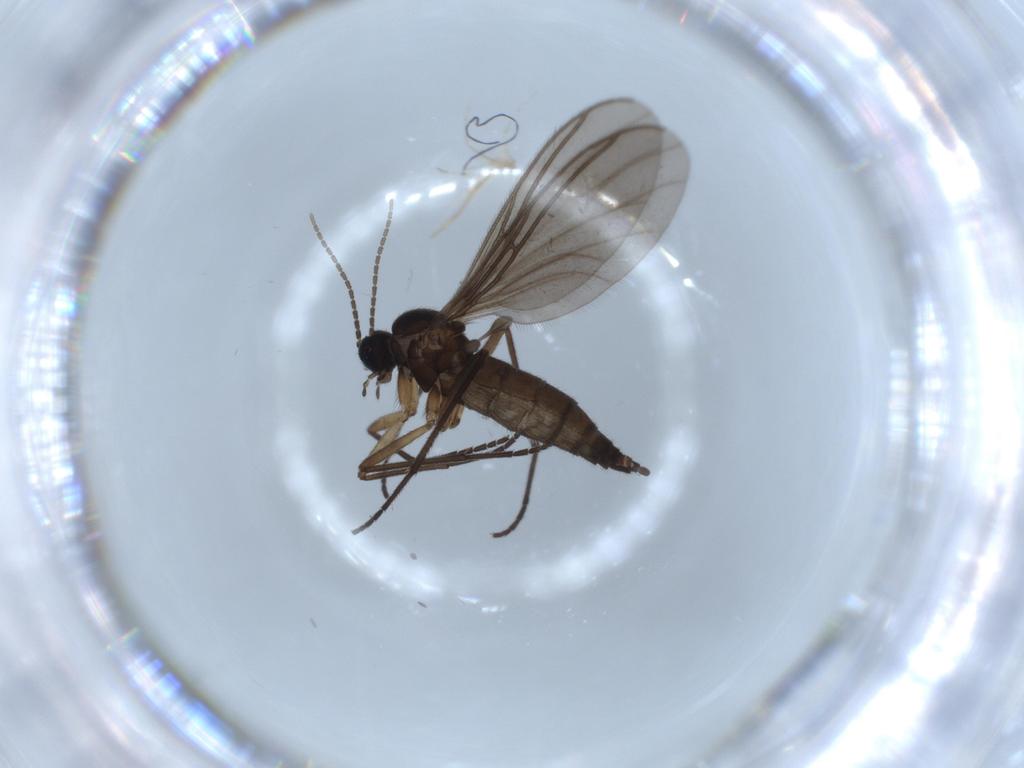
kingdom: Animalia
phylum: Arthropoda
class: Insecta
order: Diptera
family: Sciaridae
